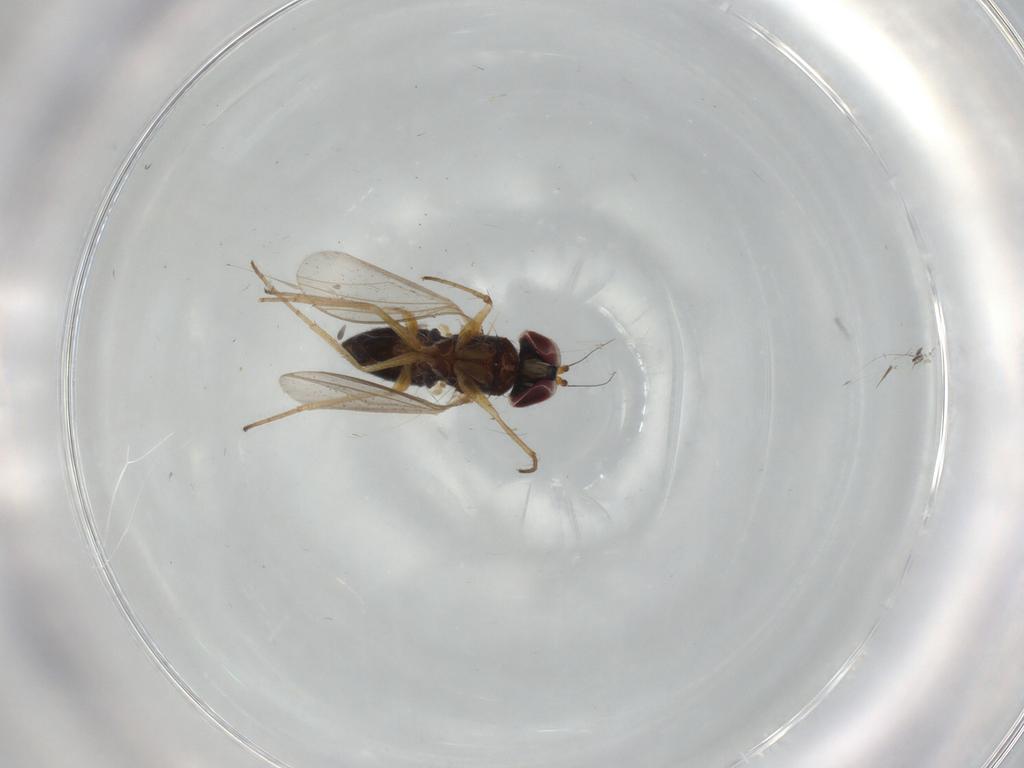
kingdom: Animalia
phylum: Arthropoda
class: Insecta
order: Diptera
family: Dolichopodidae
